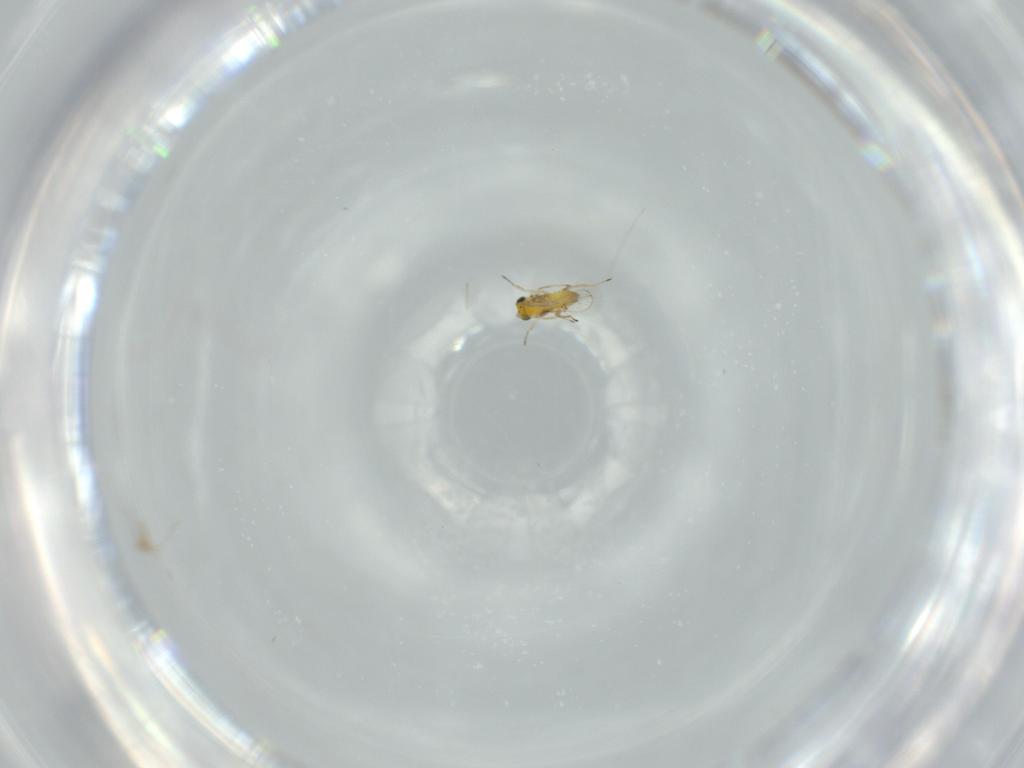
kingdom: Animalia
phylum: Arthropoda
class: Insecta
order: Hymenoptera
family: Trichogrammatidae
